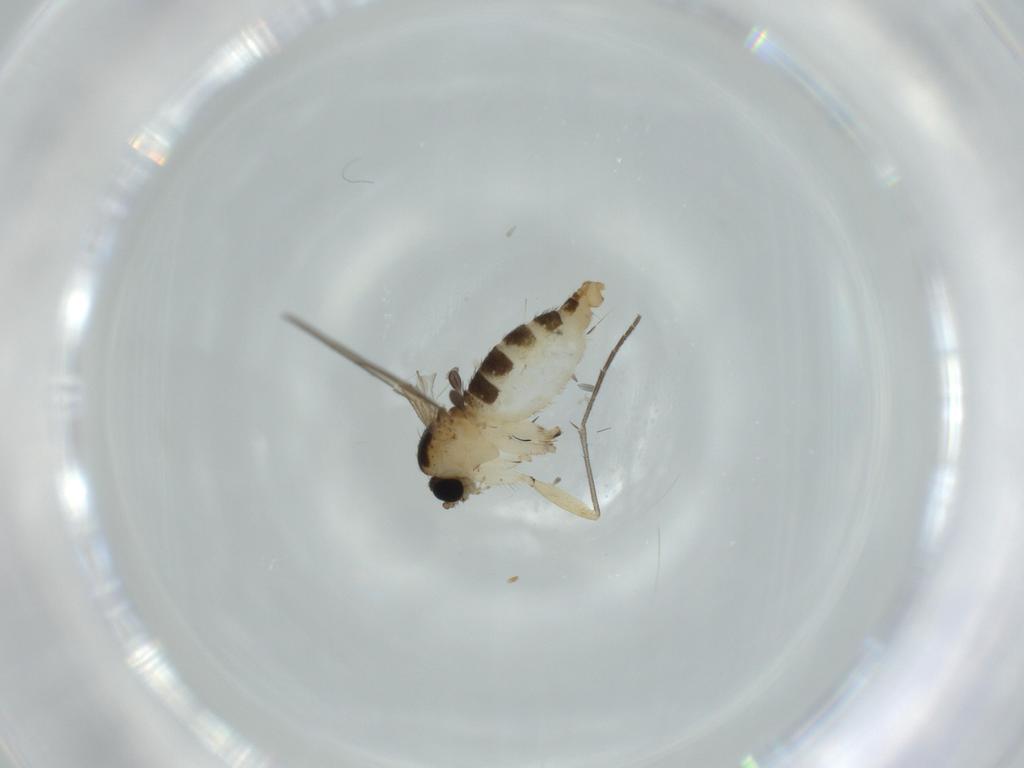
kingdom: Animalia
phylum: Arthropoda
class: Insecta
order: Diptera
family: Sciaridae
